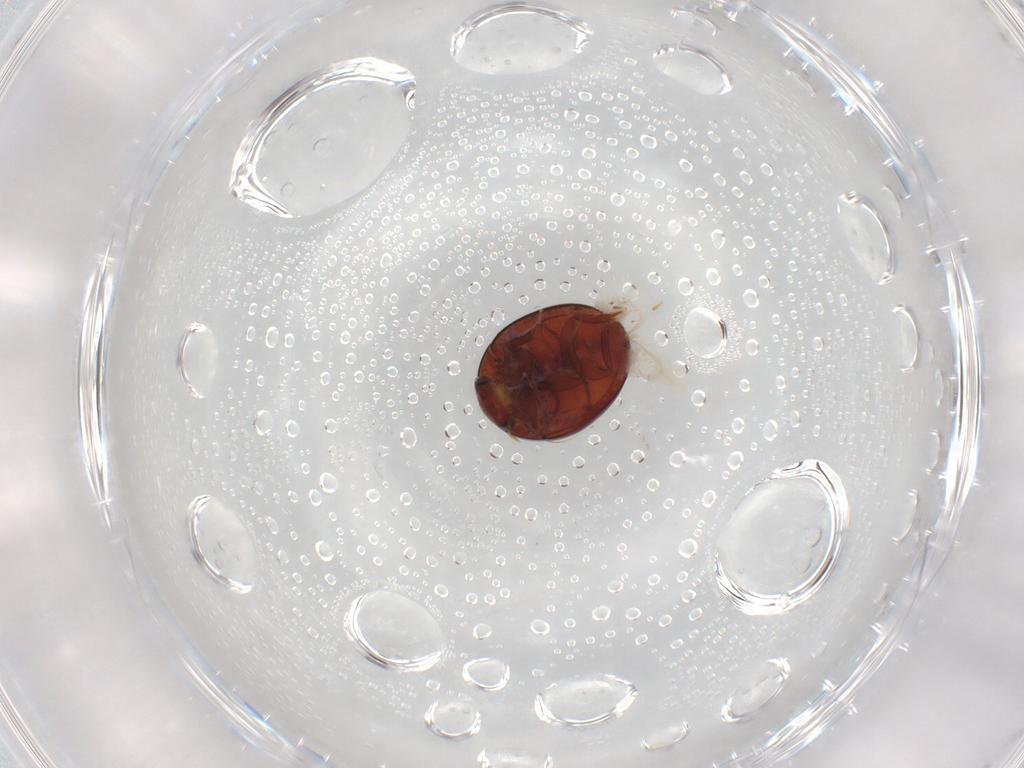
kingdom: Animalia
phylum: Arthropoda
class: Insecta
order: Coleoptera
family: Hydrophilidae
